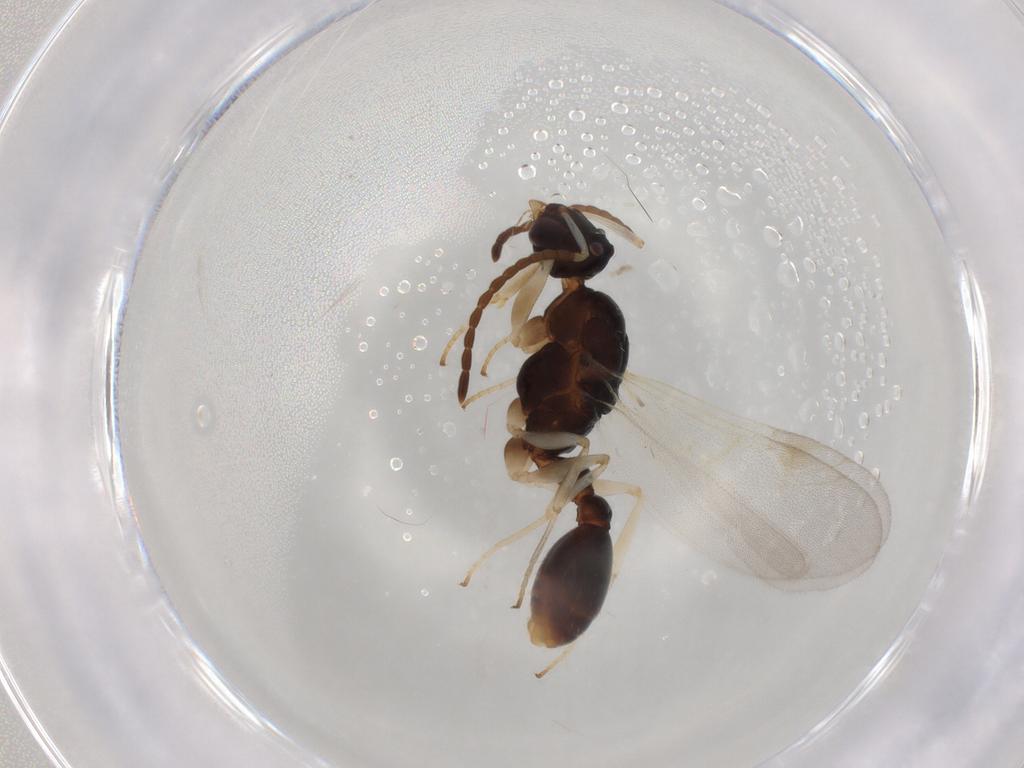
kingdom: Animalia
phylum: Arthropoda
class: Insecta
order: Hymenoptera
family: Formicidae
